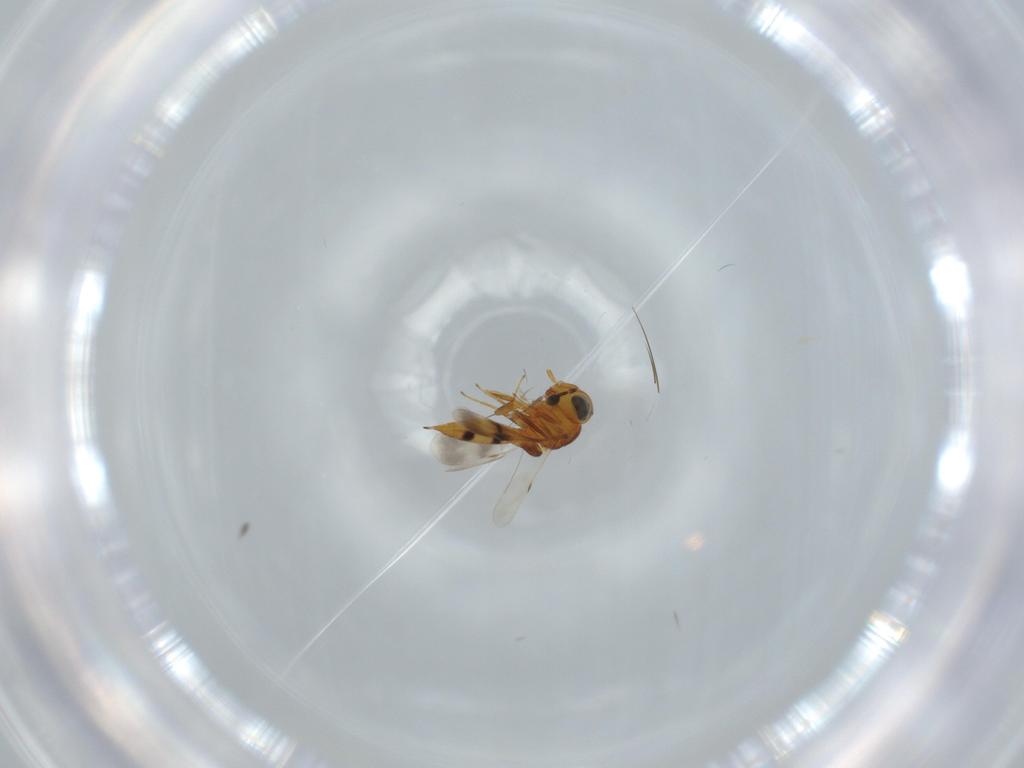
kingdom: Animalia
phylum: Arthropoda
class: Insecta
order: Hymenoptera
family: Scelionidae
